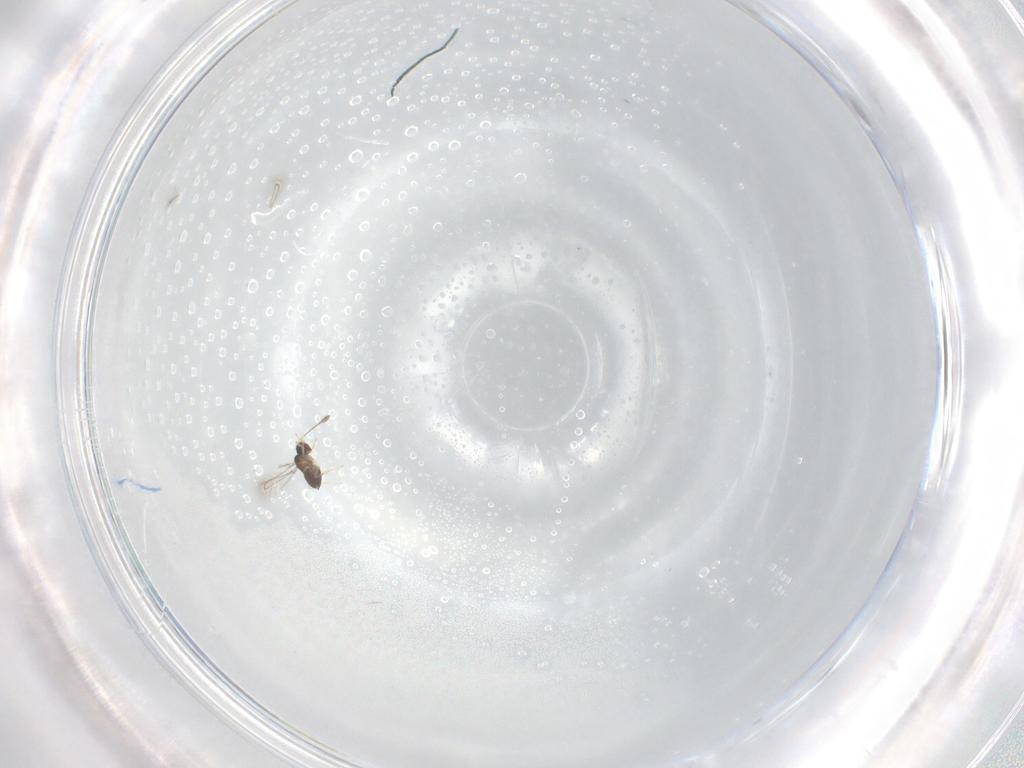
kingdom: Animalia
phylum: Arthropoda
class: Insecta
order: Hymenoptera
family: Mymaridae
